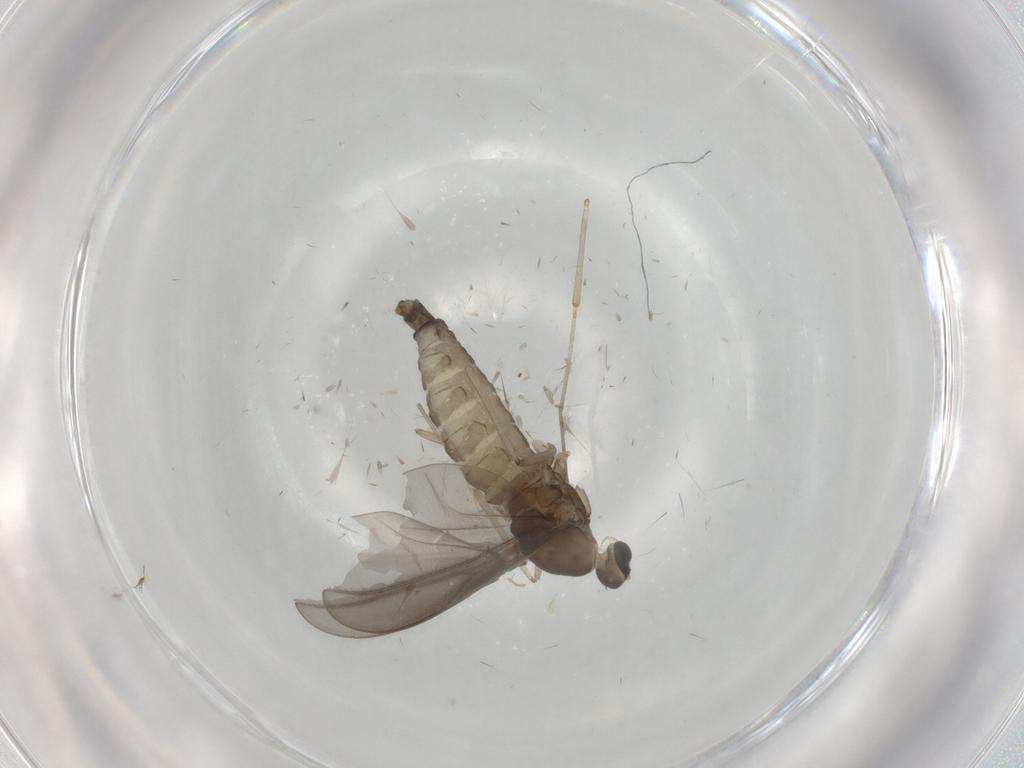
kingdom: Animalia
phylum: Arthropoda
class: Insecta
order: Diptera
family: Cecidomyiidae
